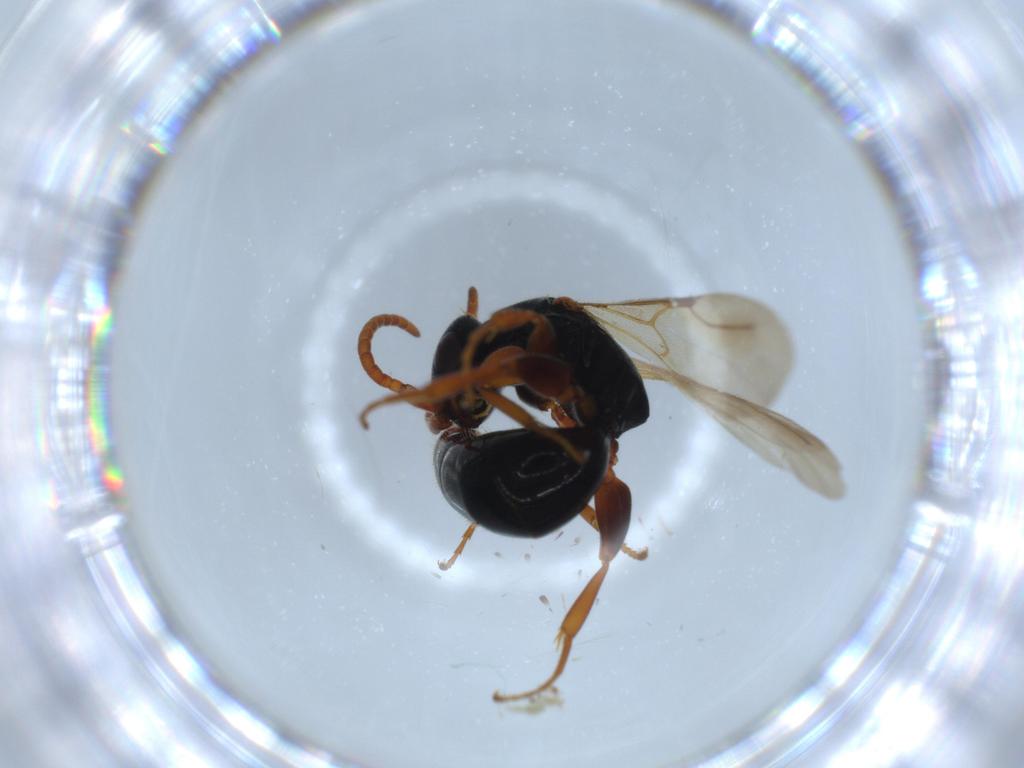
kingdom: Animalia
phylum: Arthropoda
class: Insecta
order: Hymenoptera
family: Bethylidae
